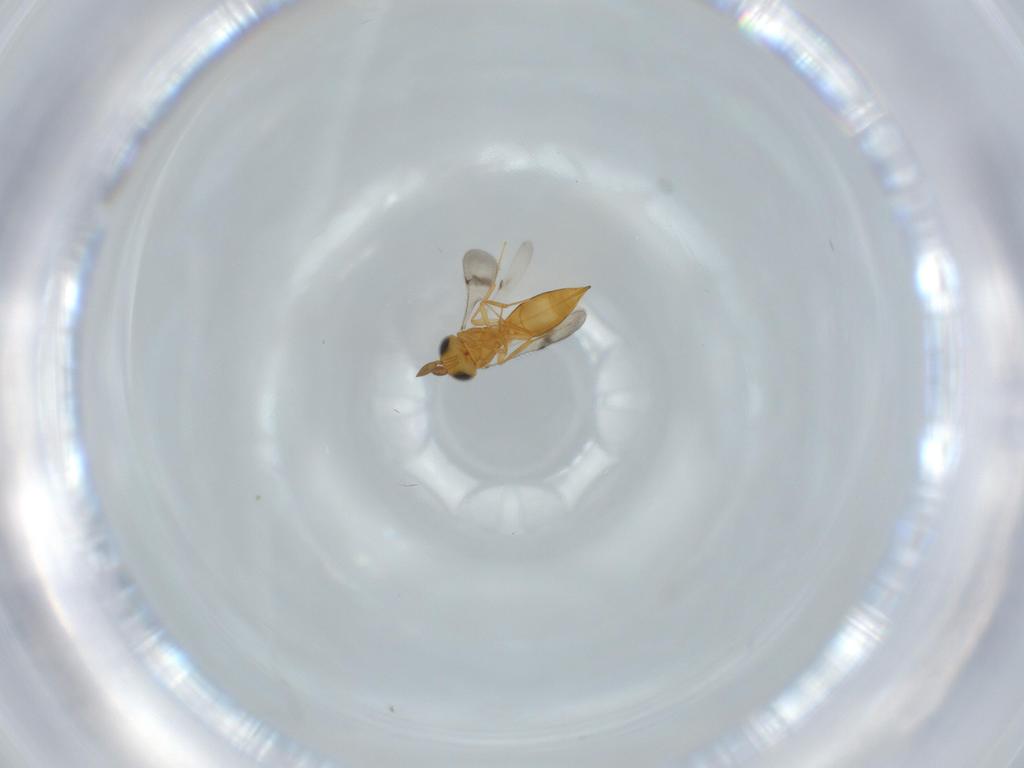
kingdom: Animalia
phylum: Arthropoda
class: Insecta
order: Hymenoptera
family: Scelionidae
